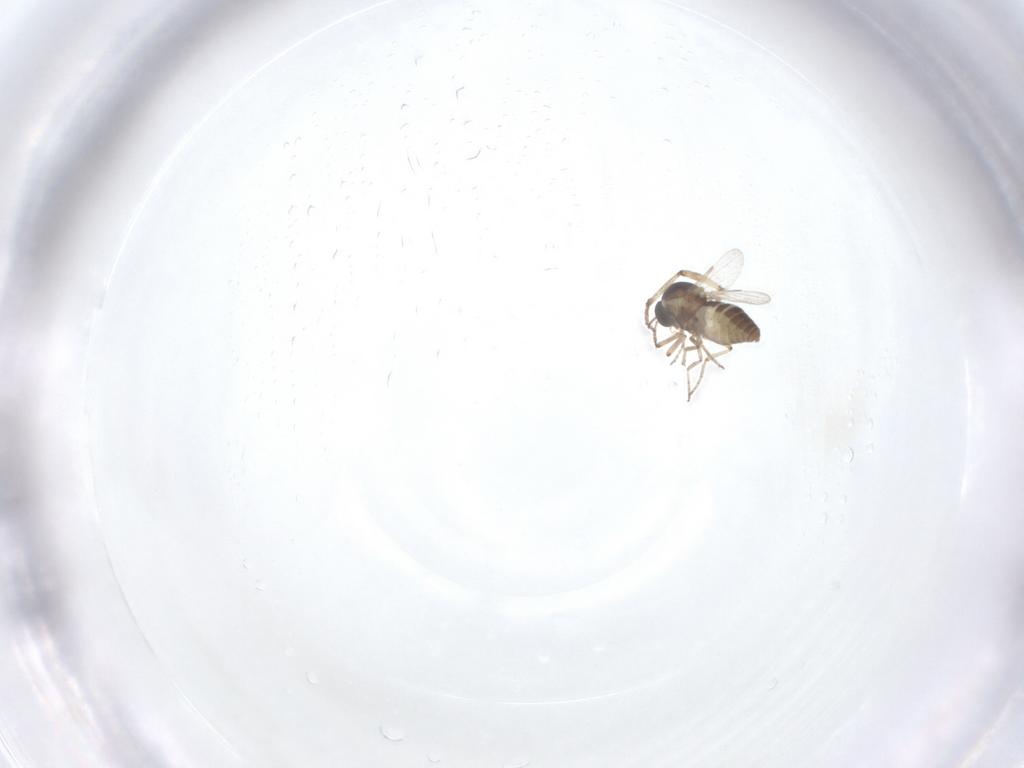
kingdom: Animalia
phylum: Arthropoda
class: Insecta
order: Diptera
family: Ceratopogonidae
